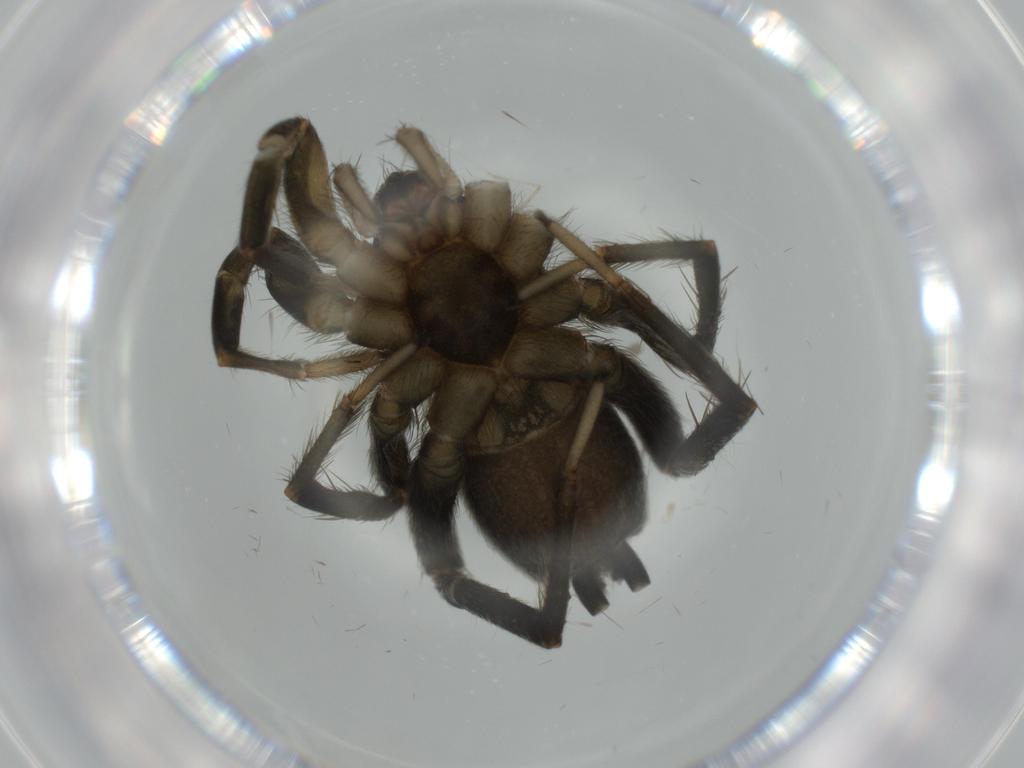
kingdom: Animalia
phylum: Arthropoda
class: Arachnida
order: Araneae
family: Gnaphosidae
